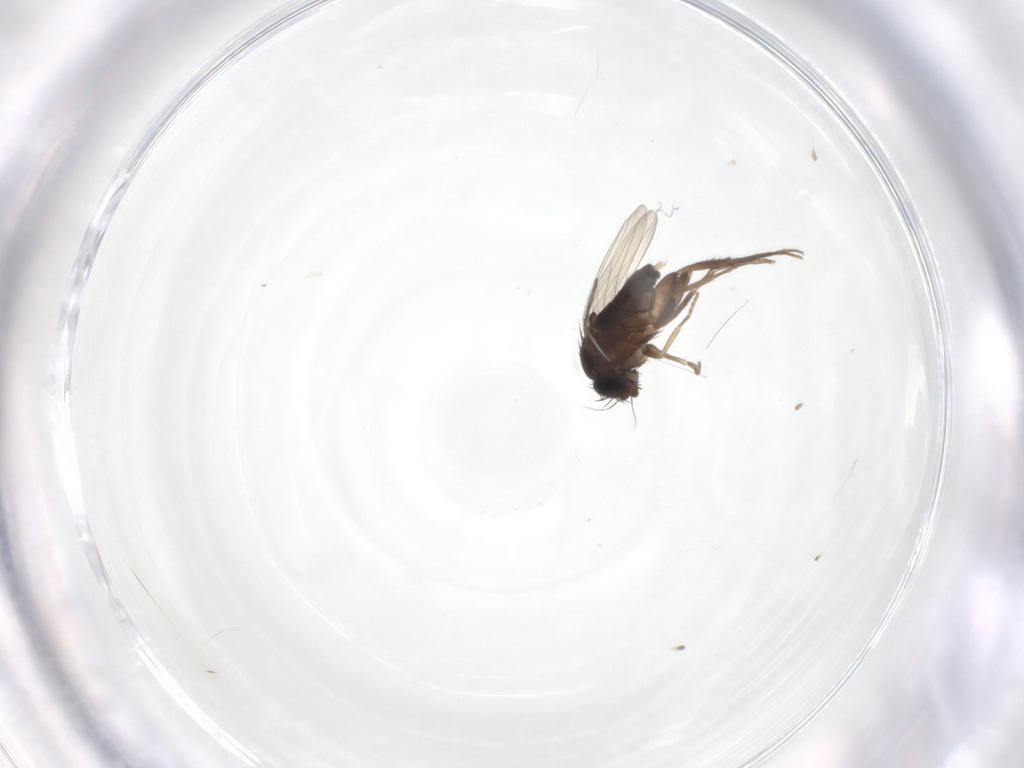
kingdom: Animalia
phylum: Arthropoda
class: Insecta
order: Diptera
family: Phoridae
